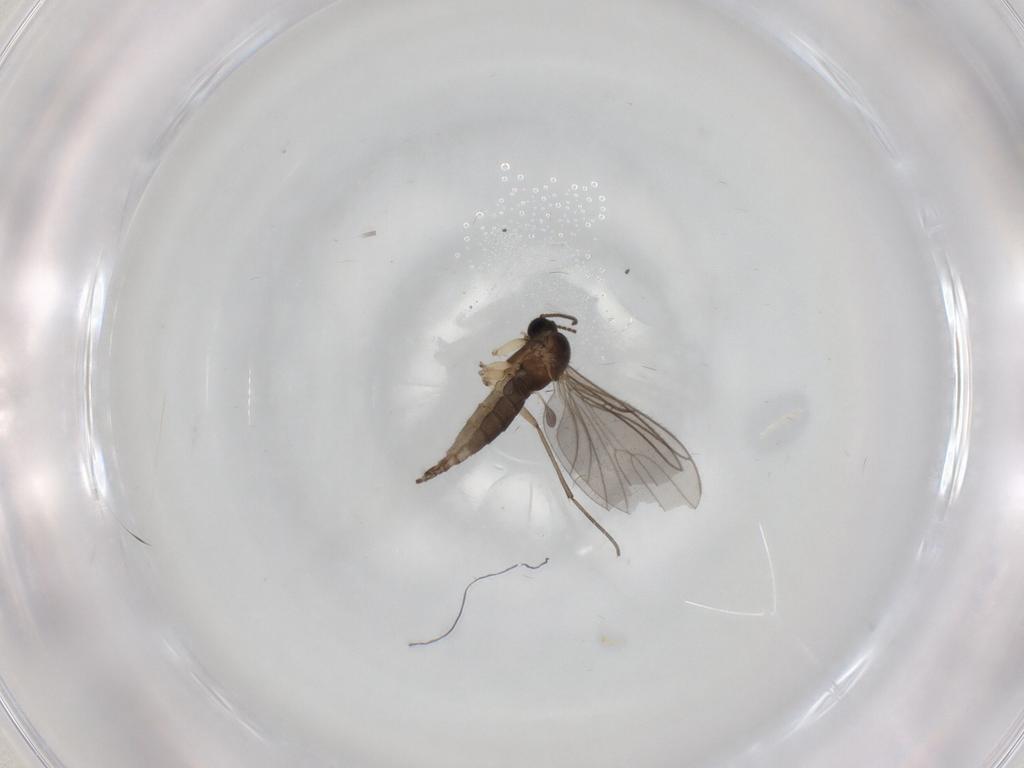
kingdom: Animalia
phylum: Arthropoda
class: Insecta
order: Diptera
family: Sciaridae
